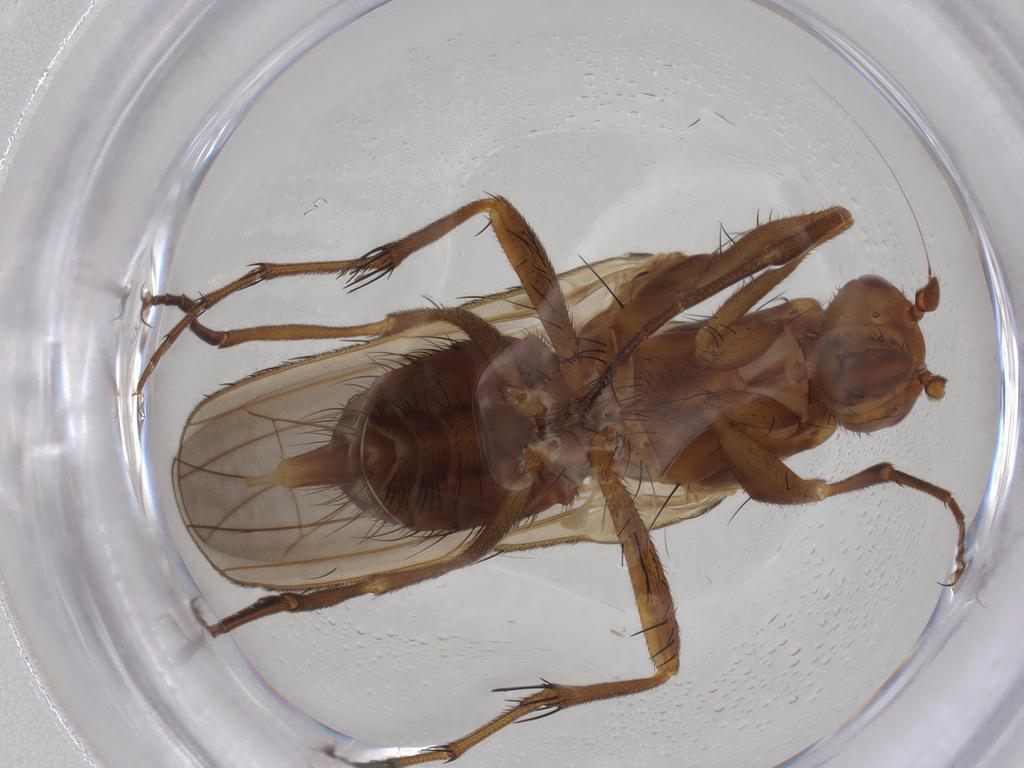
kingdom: Animalia
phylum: Arthropoda
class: Insecta
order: Diptera
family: Heleomyzidae
